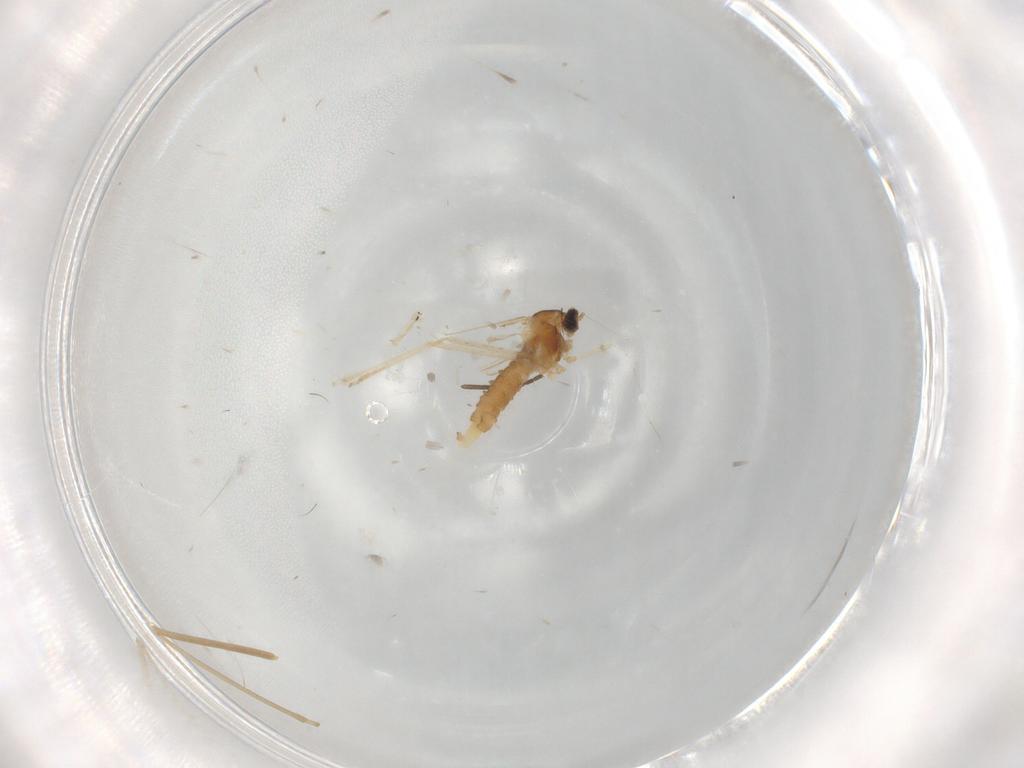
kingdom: Animalia
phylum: Arthropoda
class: Insecta
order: Diptera
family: Cecidomyiidae
